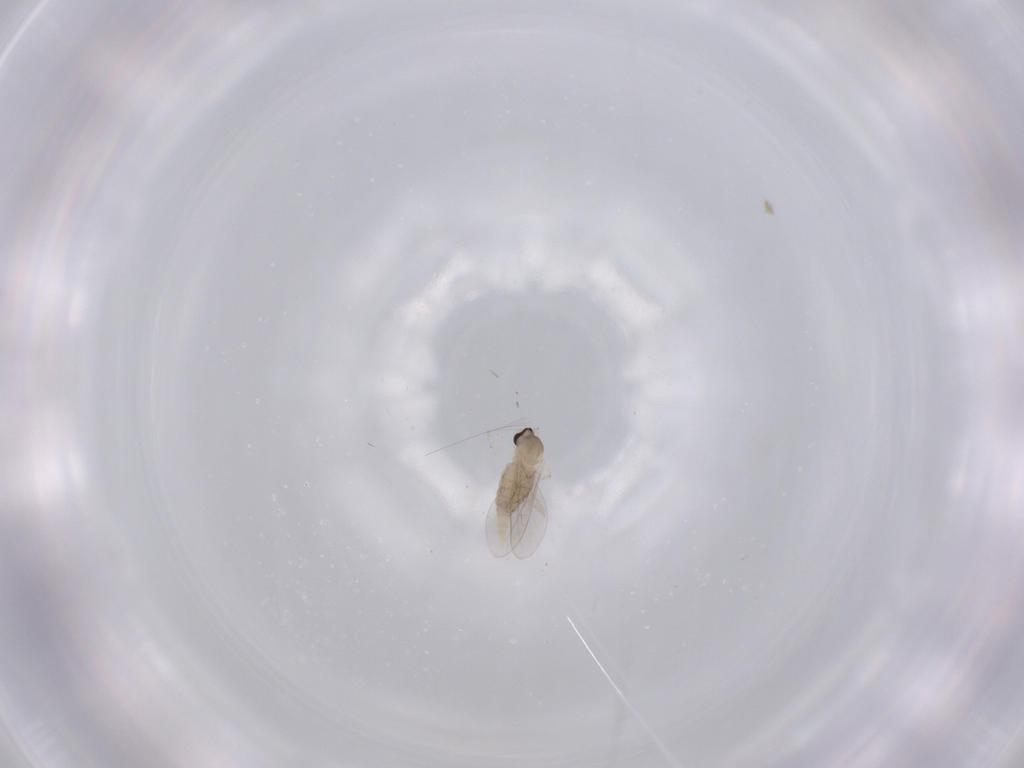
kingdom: Animalia
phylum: Arthropoda
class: Insecta
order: Diptera
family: Cecidomyiidae
